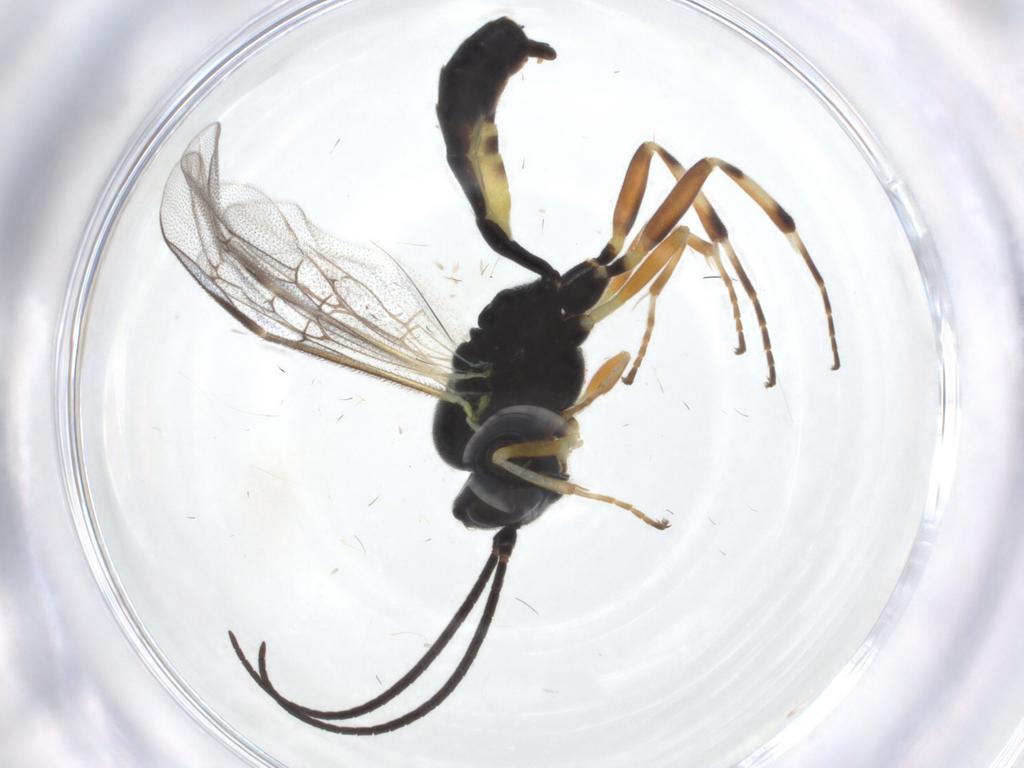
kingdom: Animalia
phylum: Arthropoda
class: Insecta
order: Hymenoptera
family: Ichneumonidae
